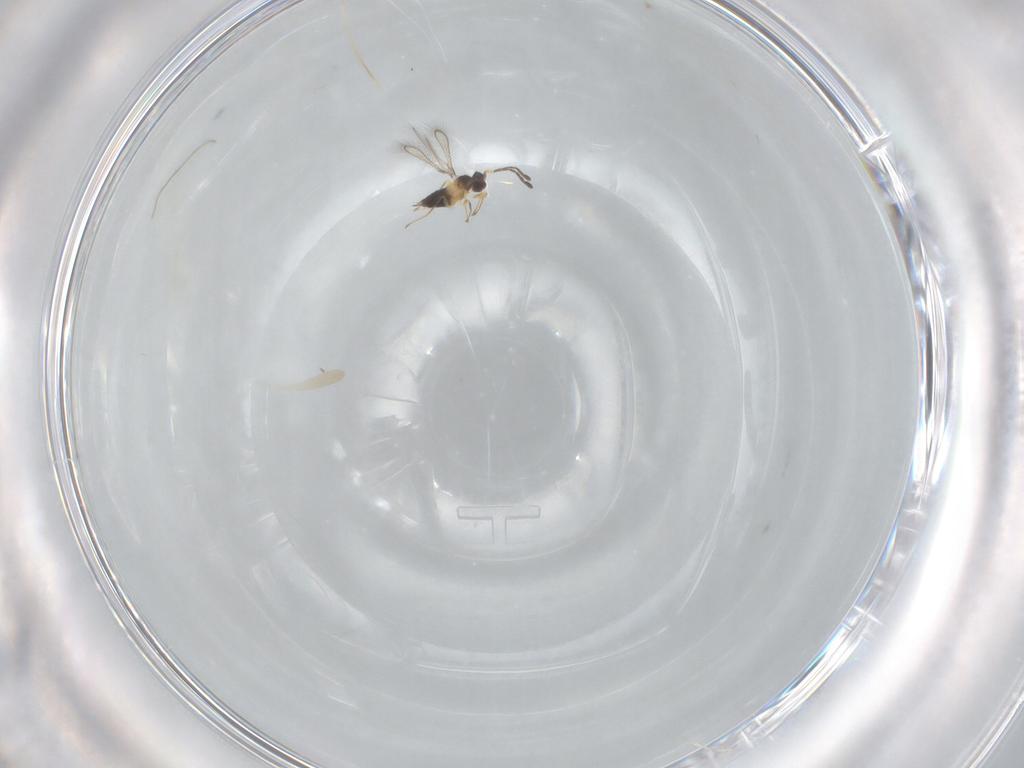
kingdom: Animalia
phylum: Arthropoda
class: Insecta
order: Hymenoptera
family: Mymaridae
